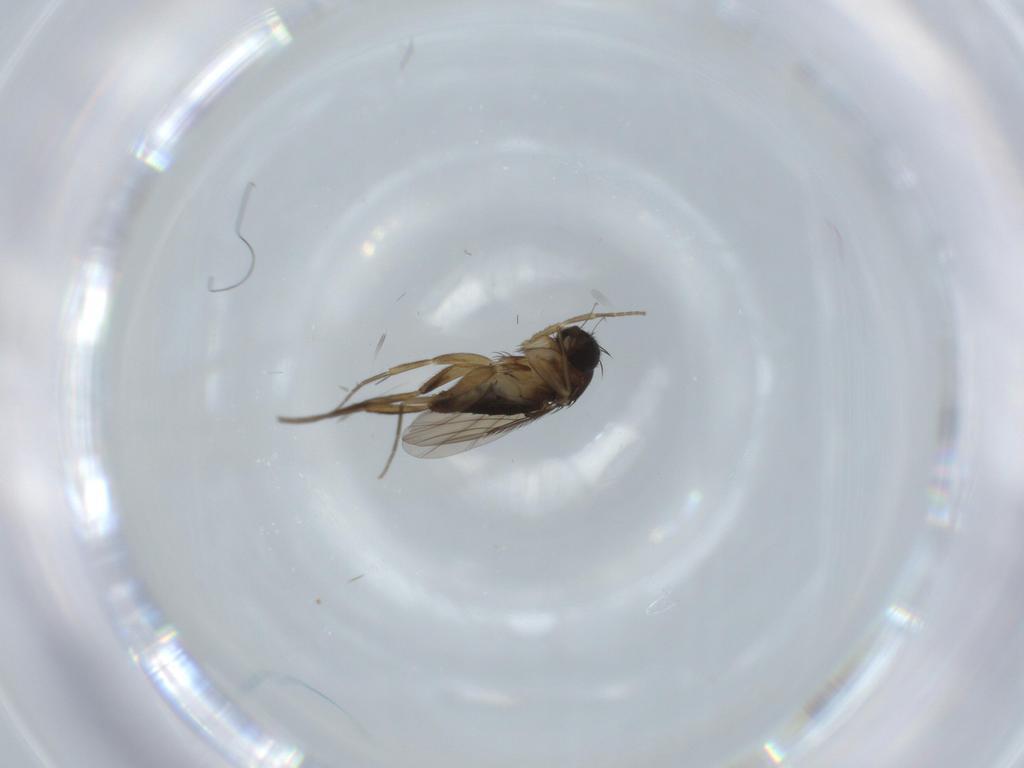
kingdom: Animalia
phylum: Arthropoda
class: Insecta
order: Diptera
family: Phoridae
